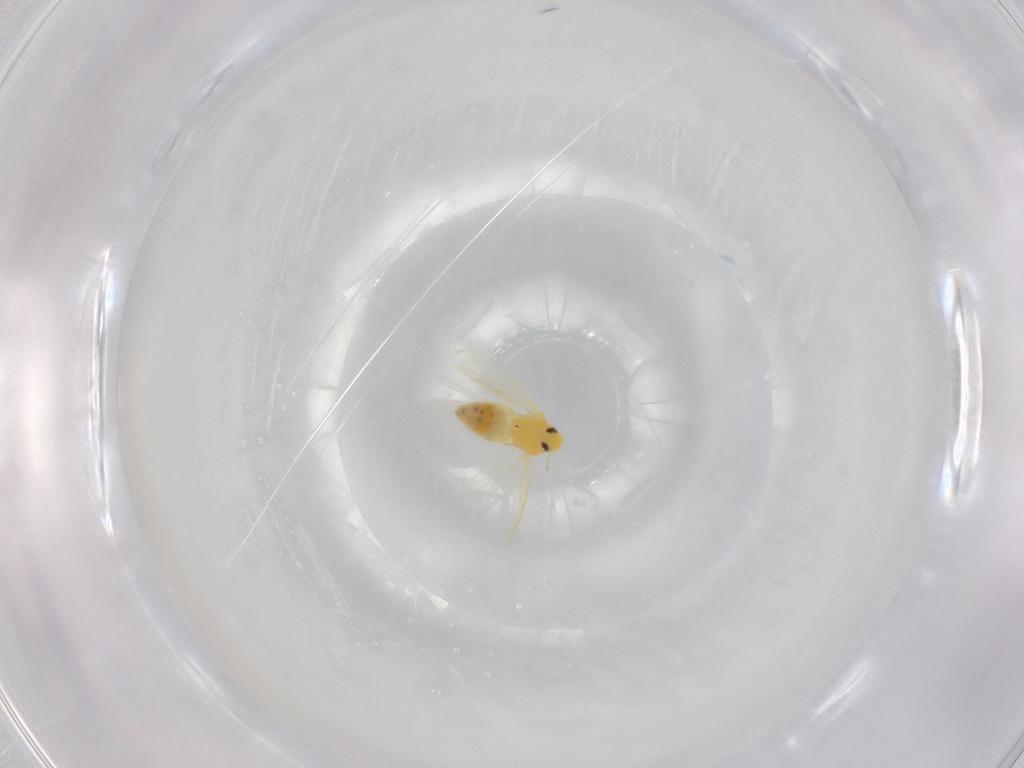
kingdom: Animalia
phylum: Arthropoda
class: Insecta
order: Hemiptera
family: Aleyrodidae
